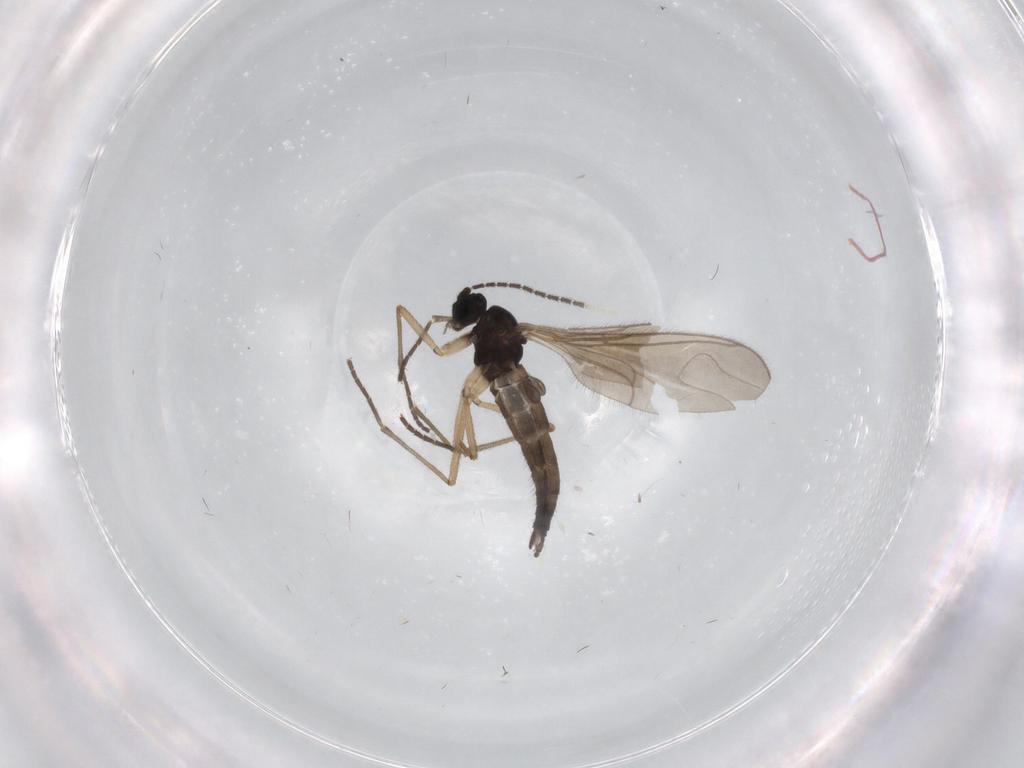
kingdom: Animalia
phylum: Arthropoda
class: Insecta
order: Diptera
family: Sciaridae
